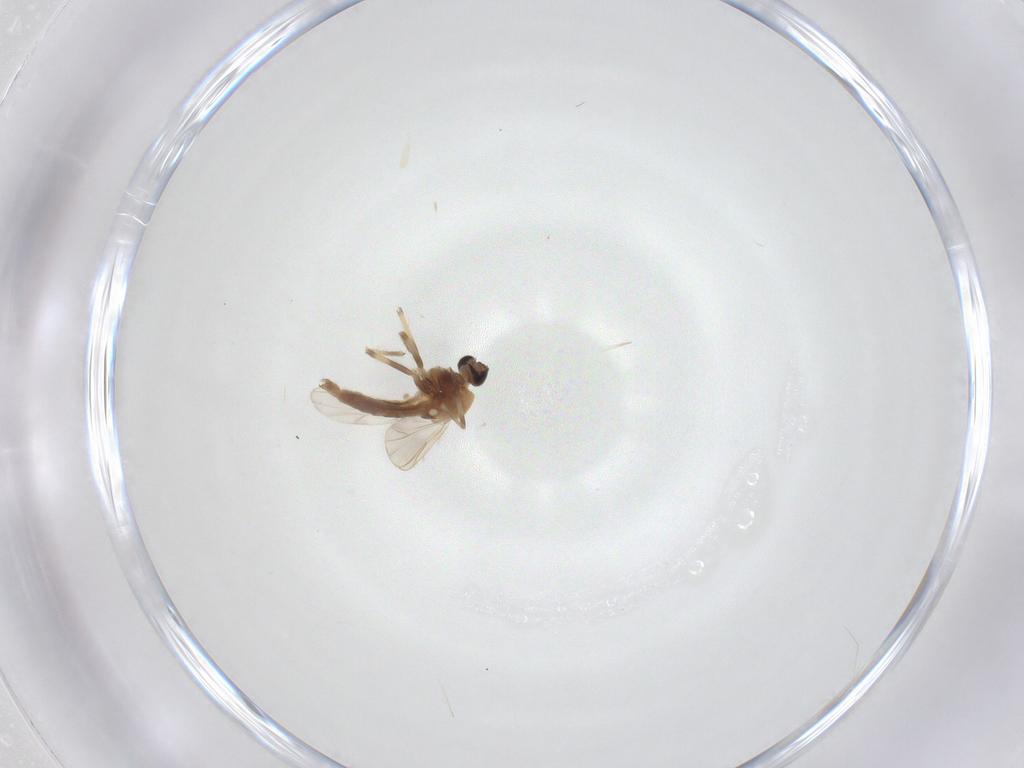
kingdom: Animalia
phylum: Arthropoda
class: Insecta
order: Diptera
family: Chironomidae
